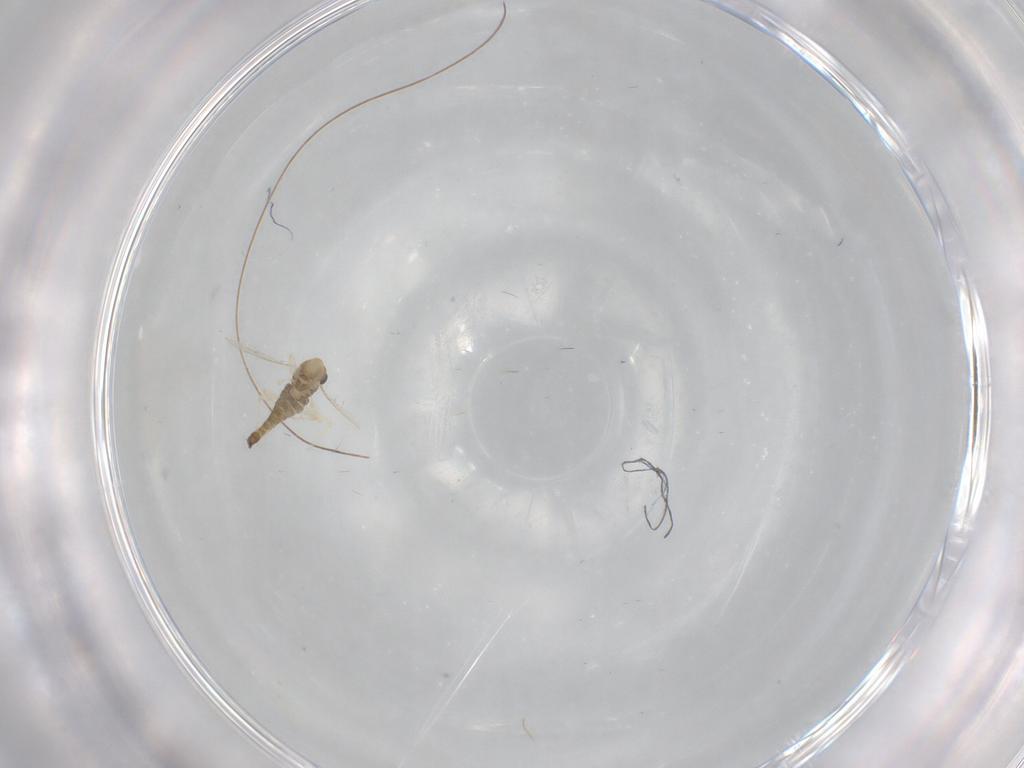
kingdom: Animalia
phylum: Arthropoda
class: Insecta
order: Diptera
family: Chironomidae
